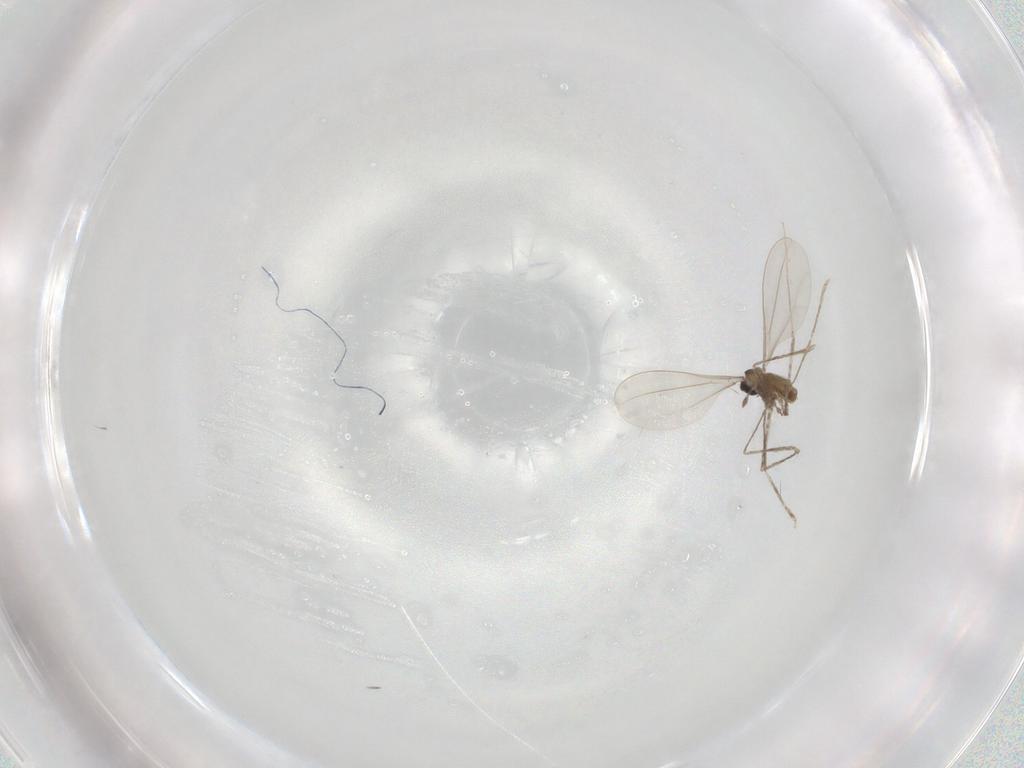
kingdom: Animalia
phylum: Arthropoda
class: Insecta
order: Diptera
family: Cecidomyiidae
